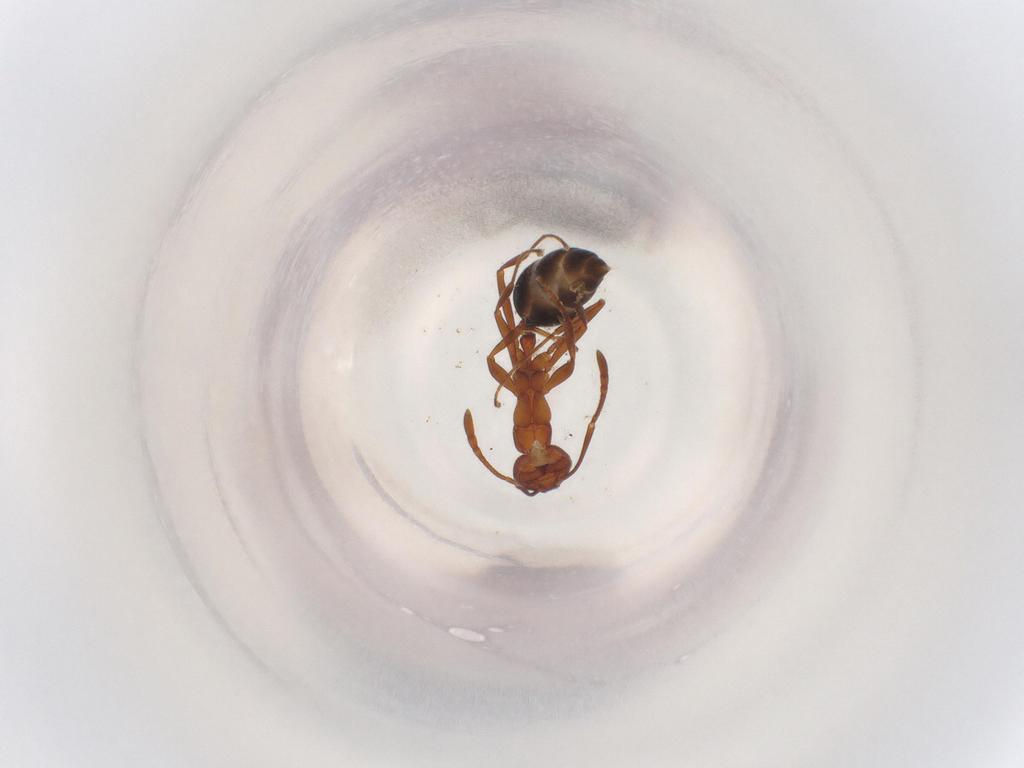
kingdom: Animalia
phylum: Arthropoda
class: Insecta
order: Hymenoptera
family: Formicidae
